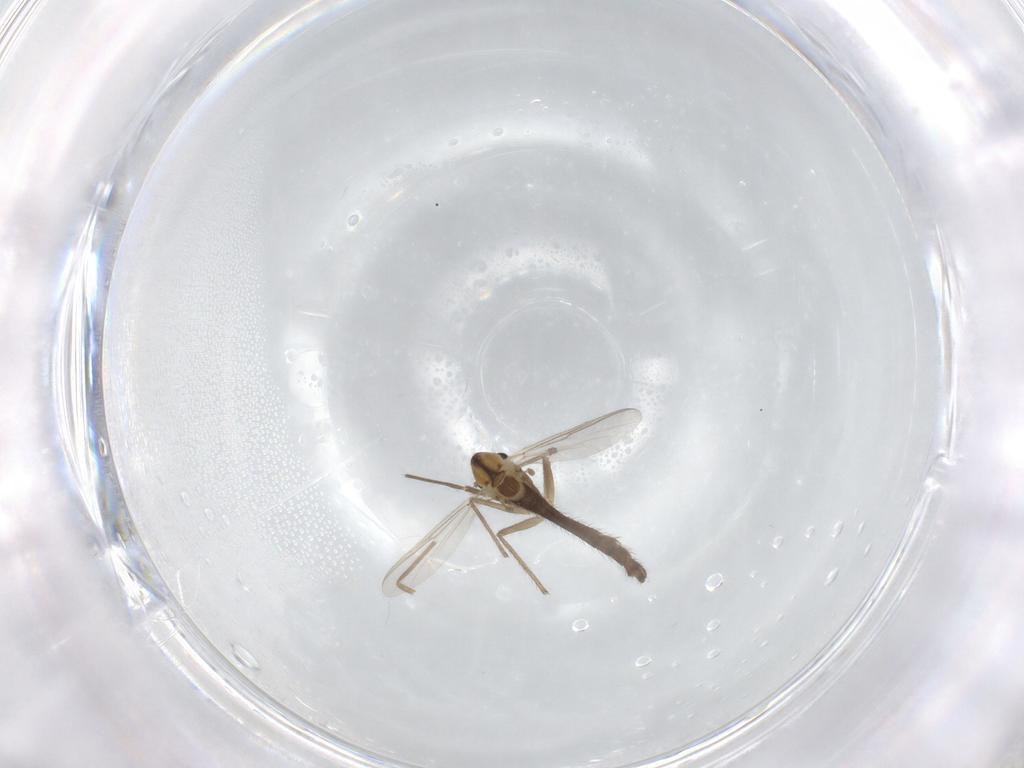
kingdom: Animalia
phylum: Arthropoda
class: Insecta
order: Diptera
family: Chironomidae
